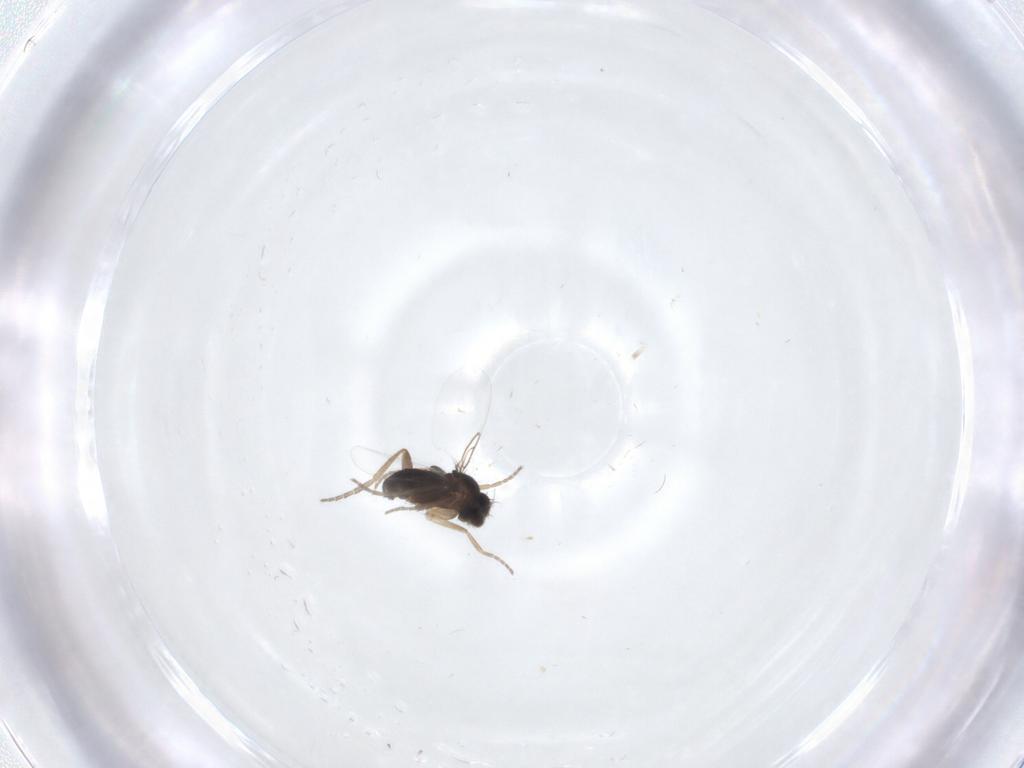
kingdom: Animalia
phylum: Arthropoda
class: Insecta
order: Diptera
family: Phoridae
